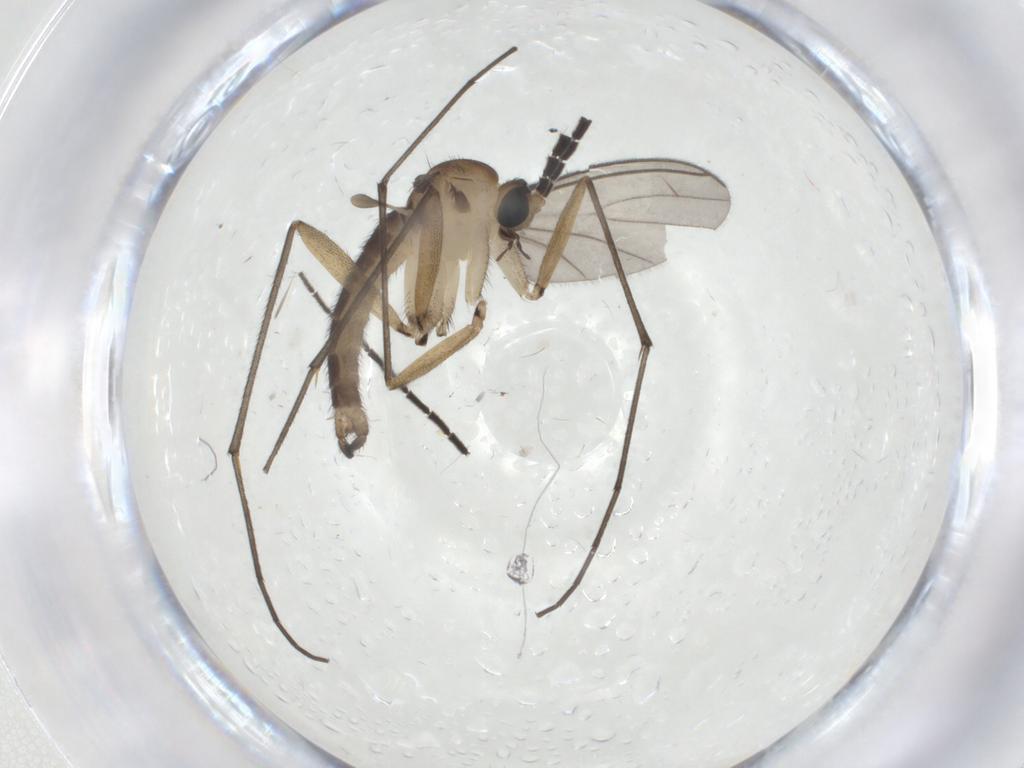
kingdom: Animalia
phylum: Arthropoda
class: Insecta
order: Diptera
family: Sciaridae
